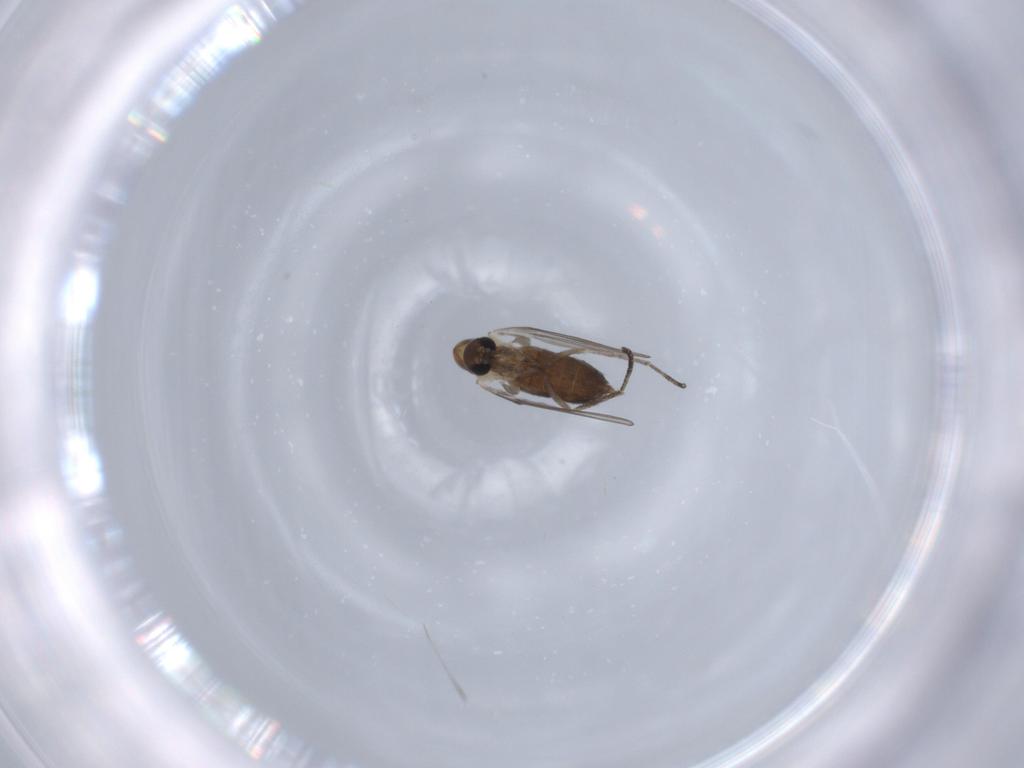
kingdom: Animalia
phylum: Arthropoda
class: Insecta
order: Diptera
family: Psychodidae
